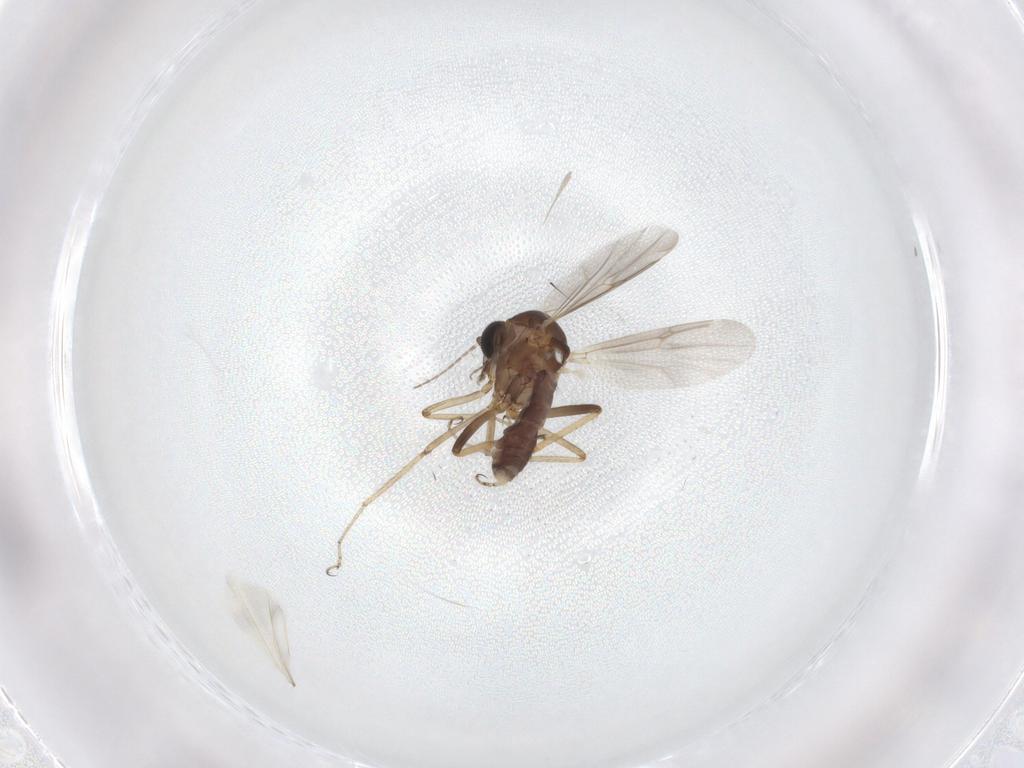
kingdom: Animalia
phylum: Arthropoda
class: Insecta
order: Diptera
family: Ceratopogonidae
